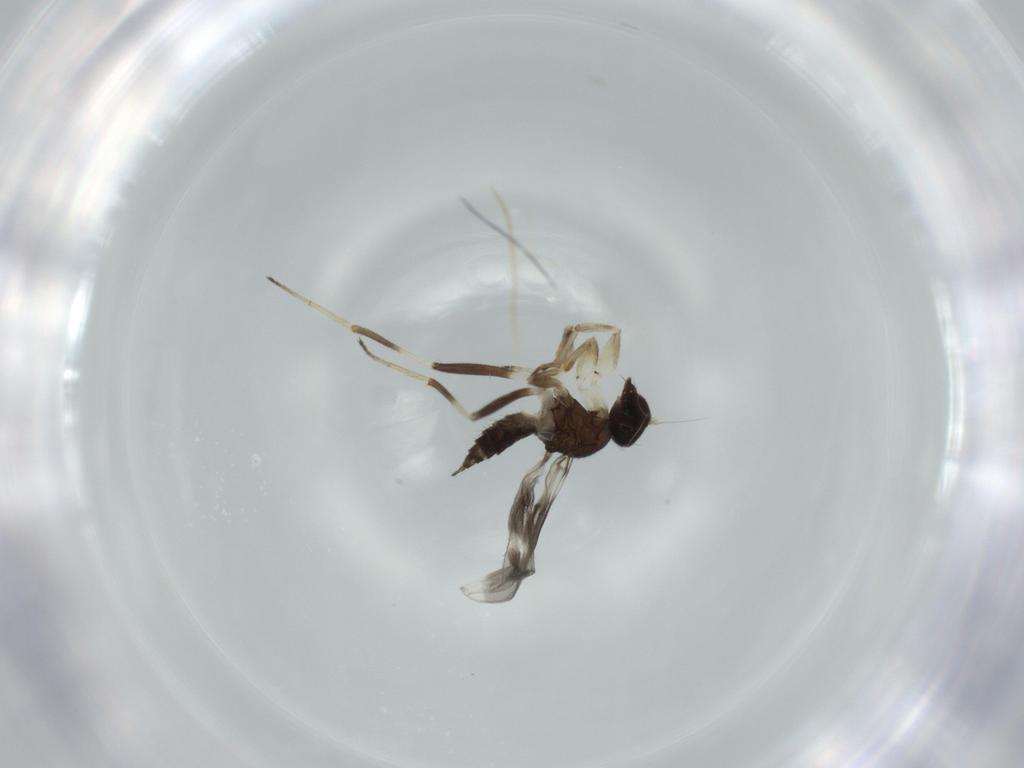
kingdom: Animalia
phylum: Arthropoda
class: Insecta
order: Diptera
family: Hybotidae
